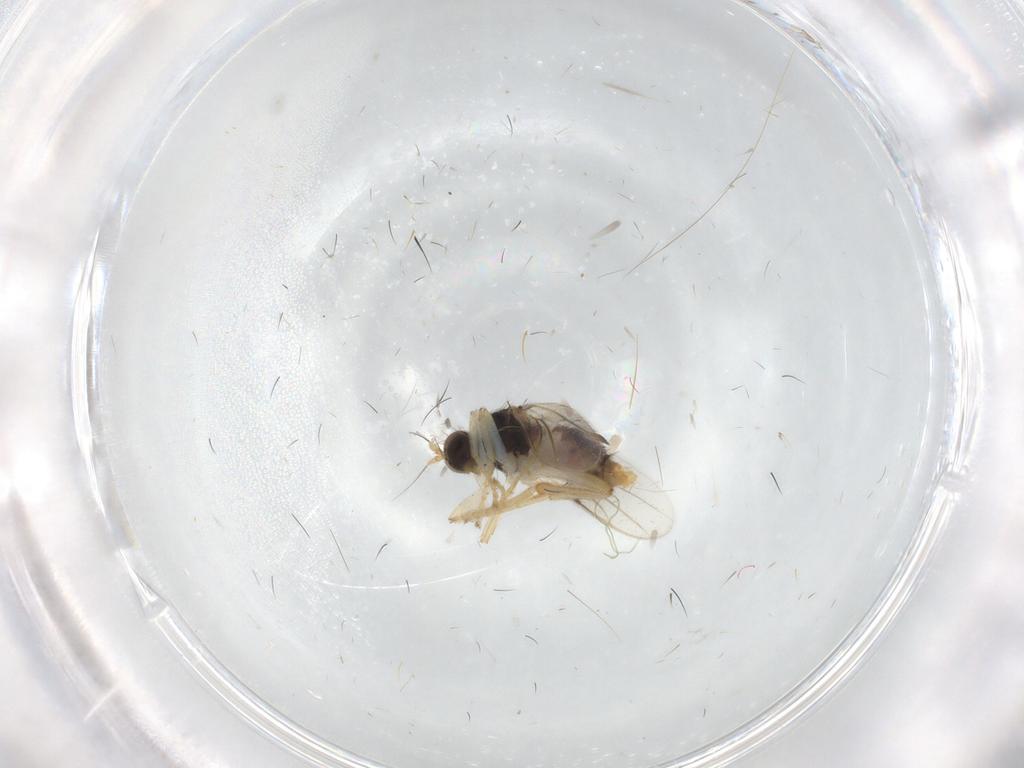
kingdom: Animalia
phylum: Arthropoda
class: Insecta
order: Diptera
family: Hybotidae
